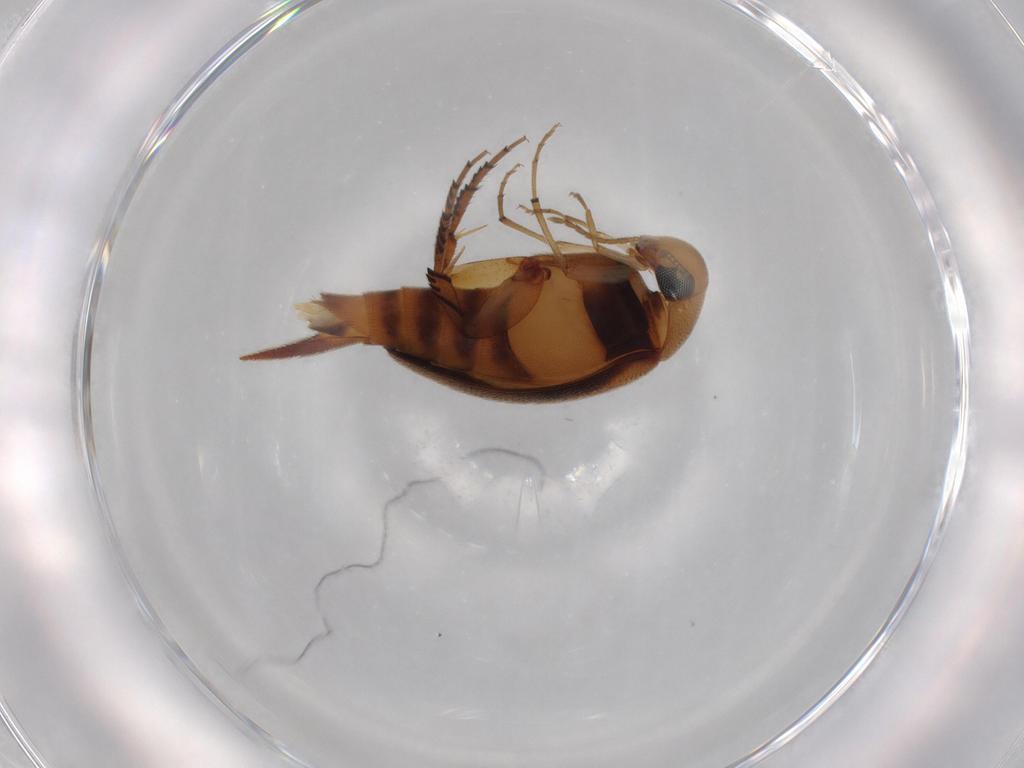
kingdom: Animalia
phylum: Arthropoda
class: Insecta
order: Coleoptera
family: Mordellidae
